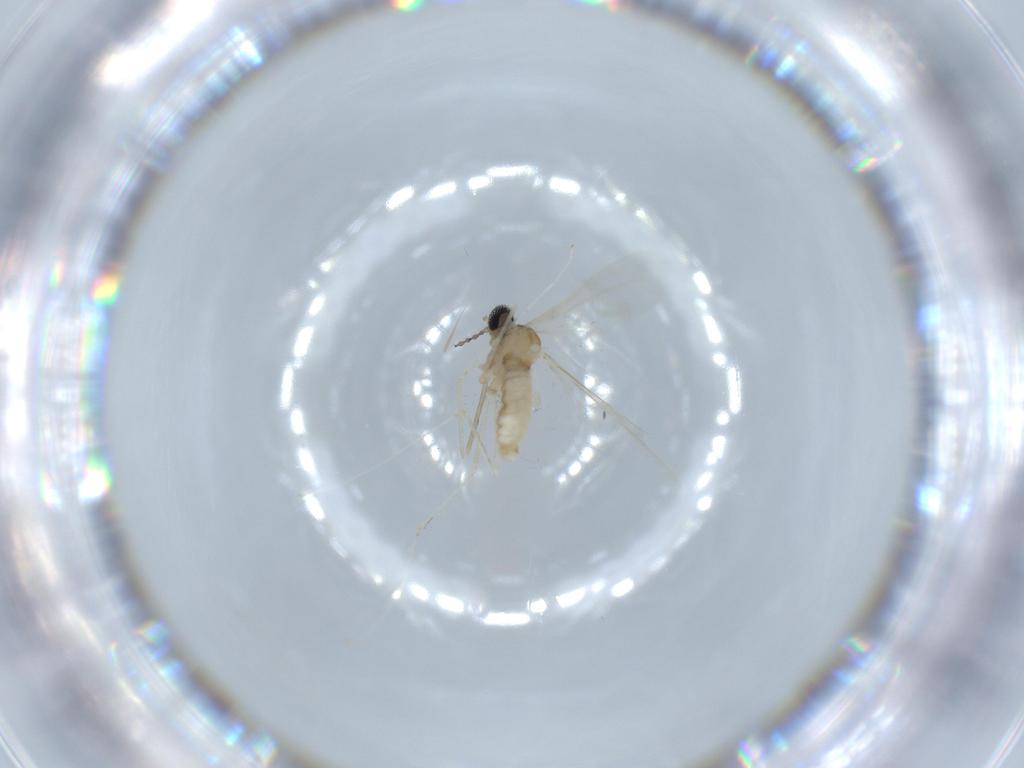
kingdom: Animalia
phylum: Arthropoda
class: Insecta
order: Diptera
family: Cecidomyiidae
